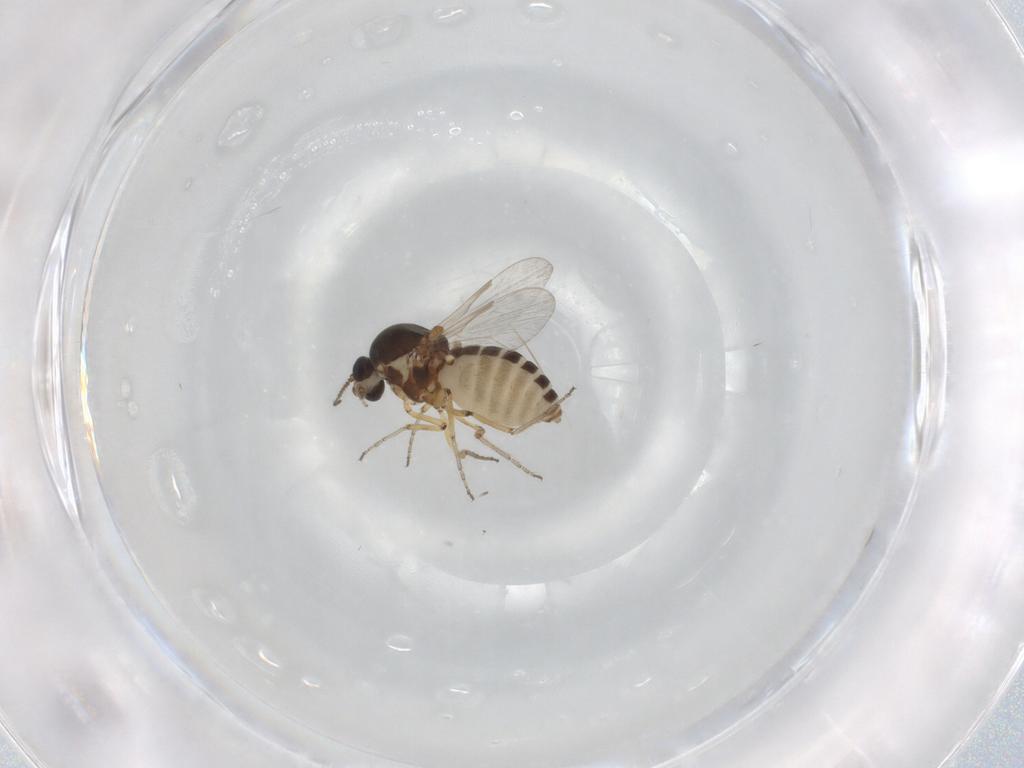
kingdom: Animalia
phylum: Arthropoda
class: Insecta
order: Diptera
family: Ceratopogonidae
